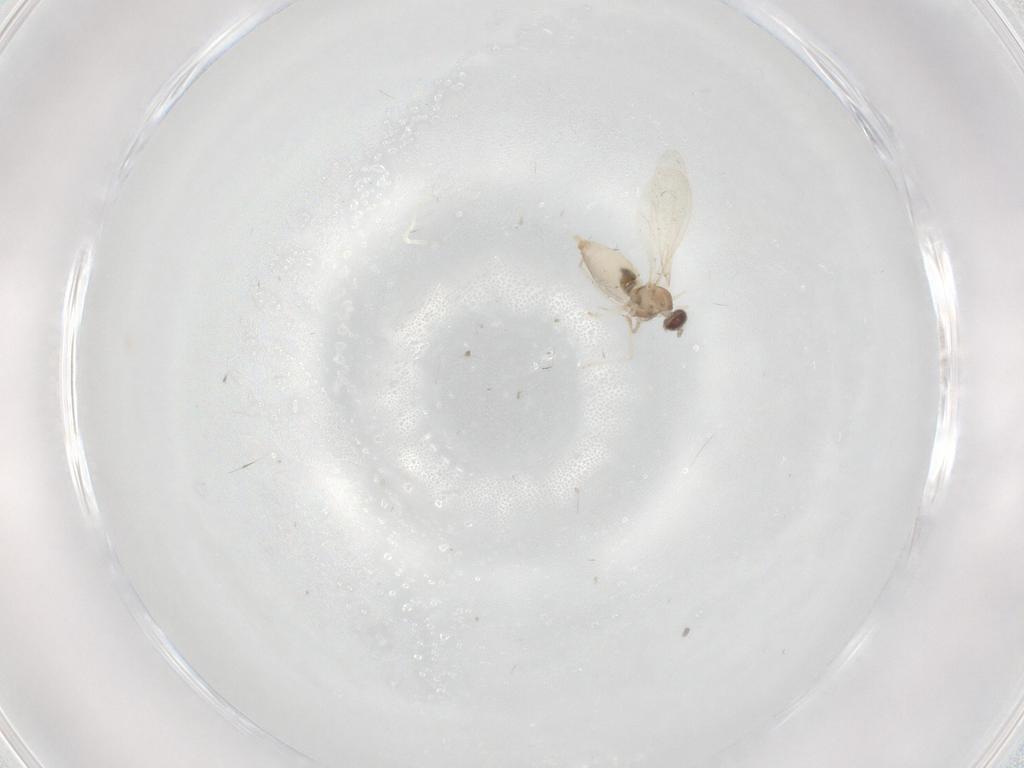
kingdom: Animalia
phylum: Arthropoda
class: Insecta
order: Diptera
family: Cecidomyiidae
